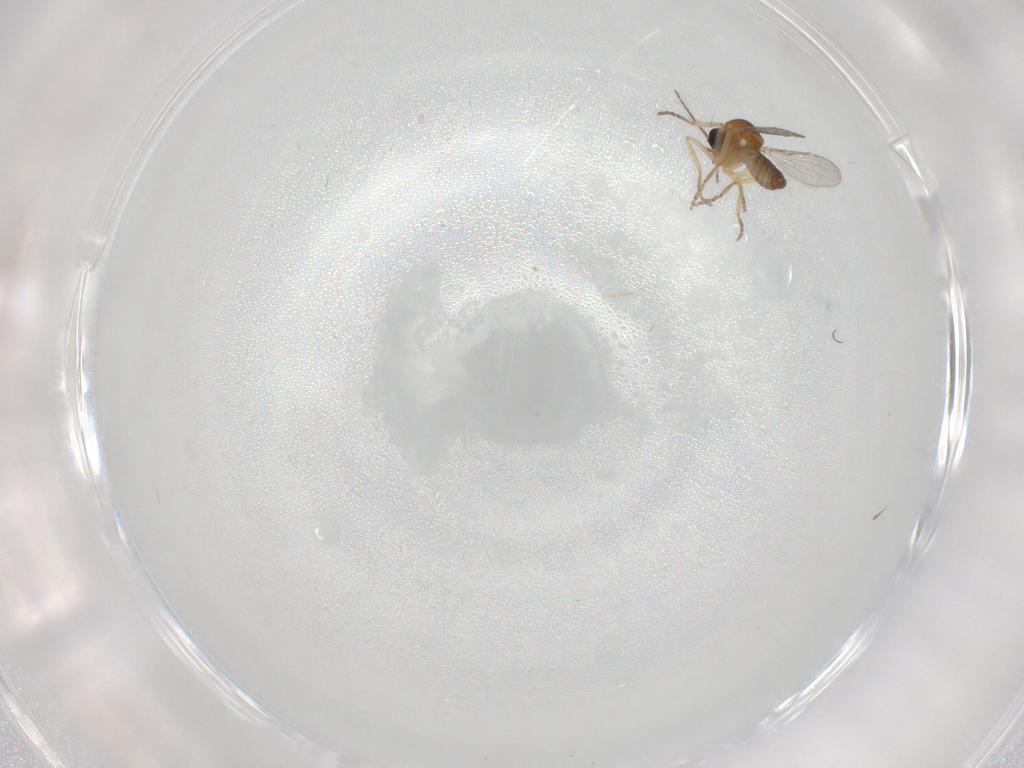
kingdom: Animalia
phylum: Arthropoda
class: Insecta
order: Diptera
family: Ceratopogonidae
